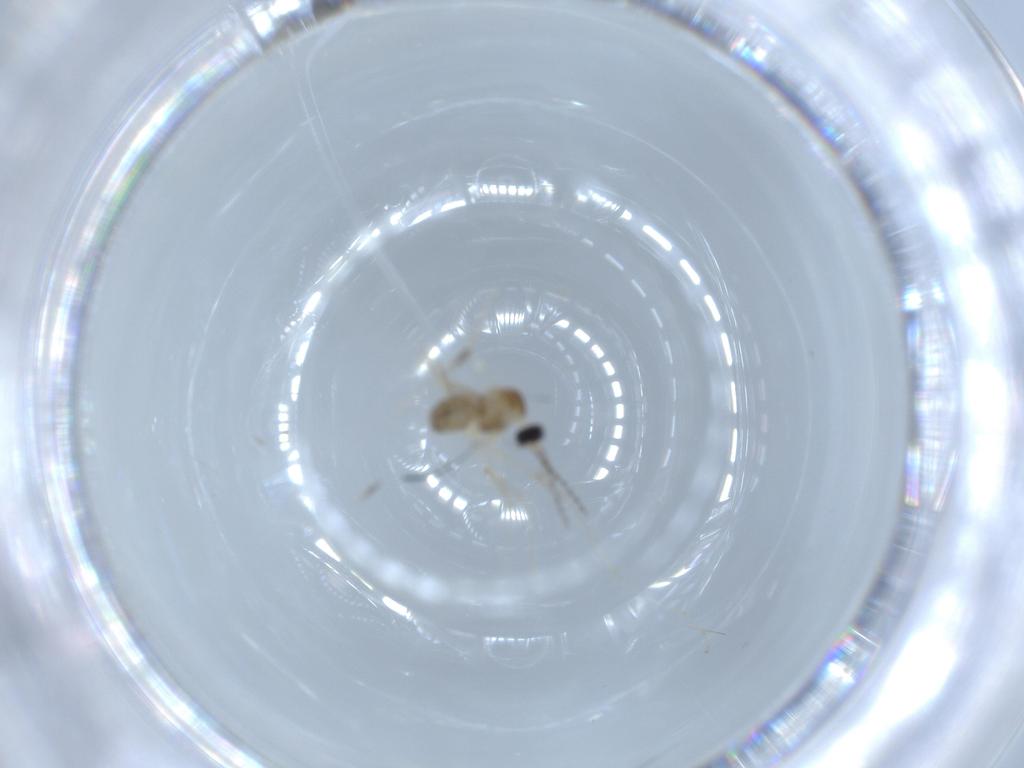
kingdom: Animalia
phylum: Arthropoda
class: Insecta
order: Diptera
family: Cecidomyiidae
